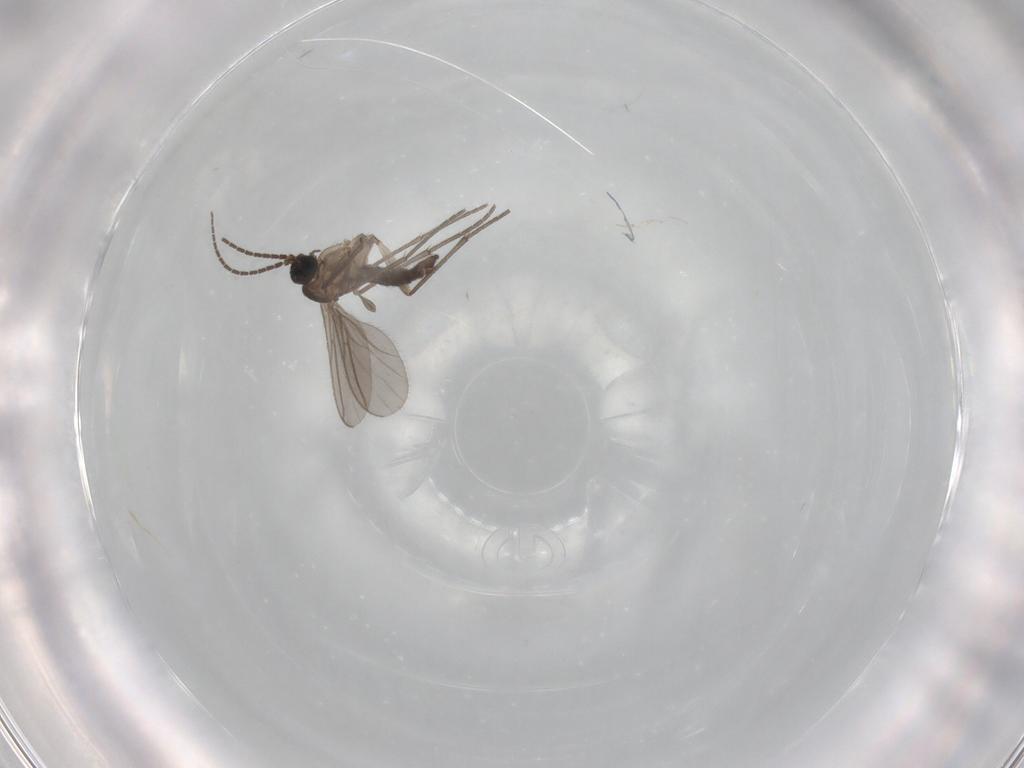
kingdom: Animalia
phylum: Arthropoda
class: Insecta
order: Diptera
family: Sciaridae
